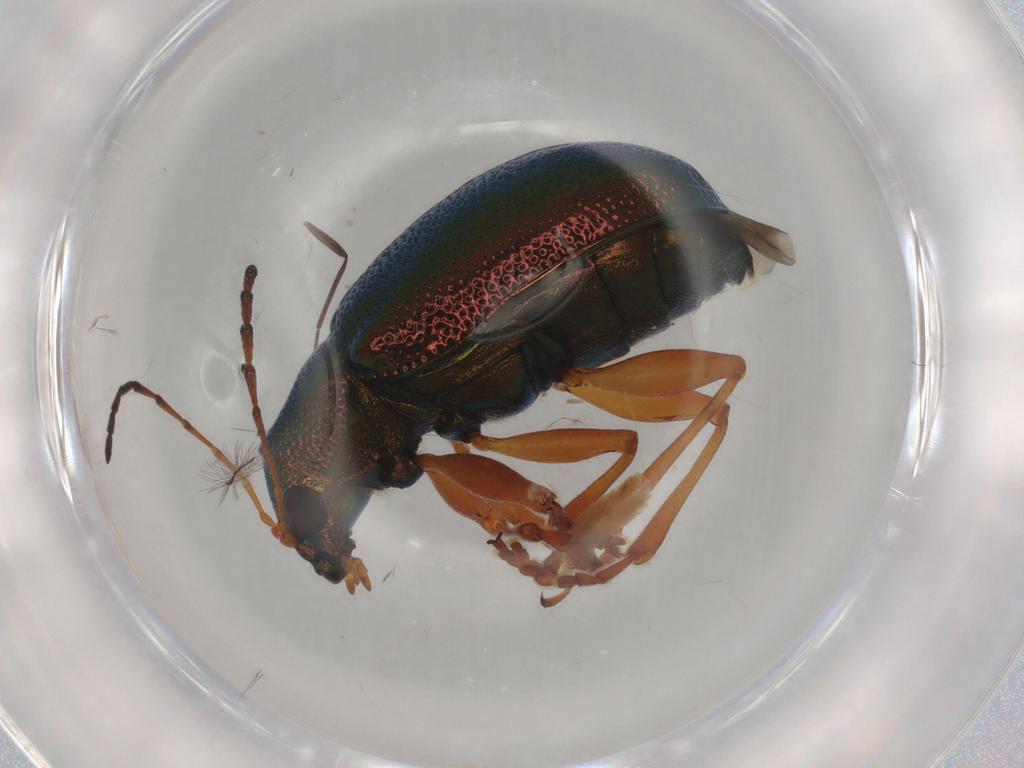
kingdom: Animalia
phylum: Arthropoda
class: Insecta
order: Coleoptera
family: Chrysomelidae
